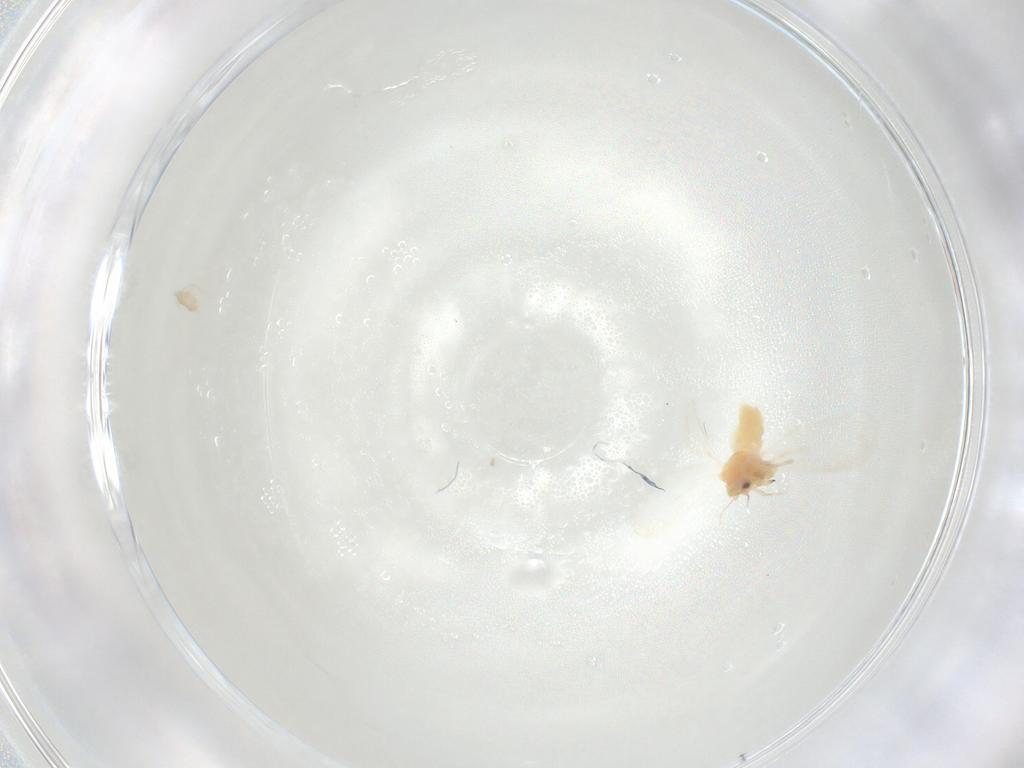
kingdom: Animalia
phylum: Arthropoda
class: Insecta
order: Hemiptera
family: Aleyrodidae
